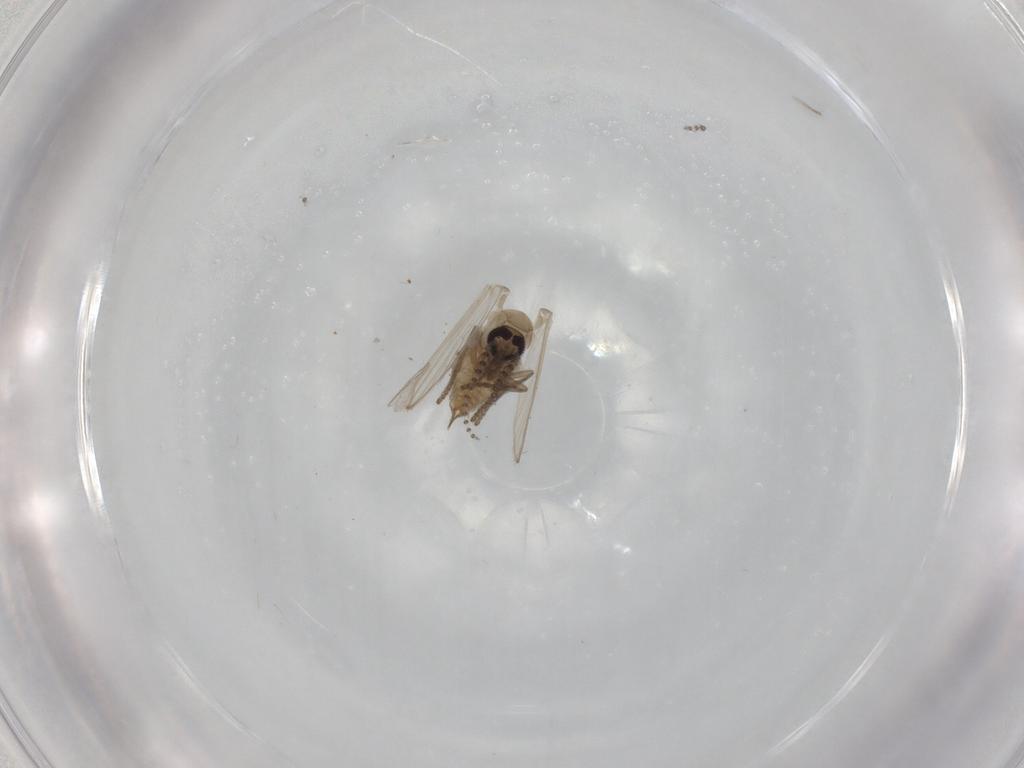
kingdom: Animalia
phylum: Arthropoda
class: Insecta
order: Diptera
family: Psychodidae
